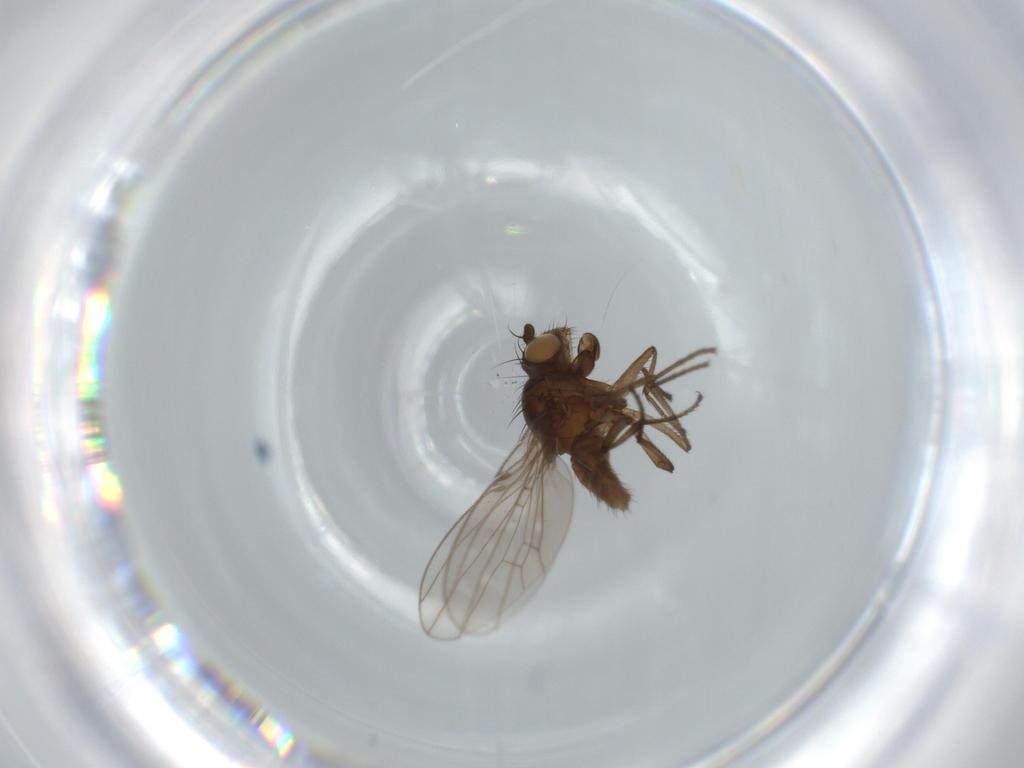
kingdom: Animalia
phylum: Arthropoda
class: Insecta
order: Diptera
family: Ephydridae
